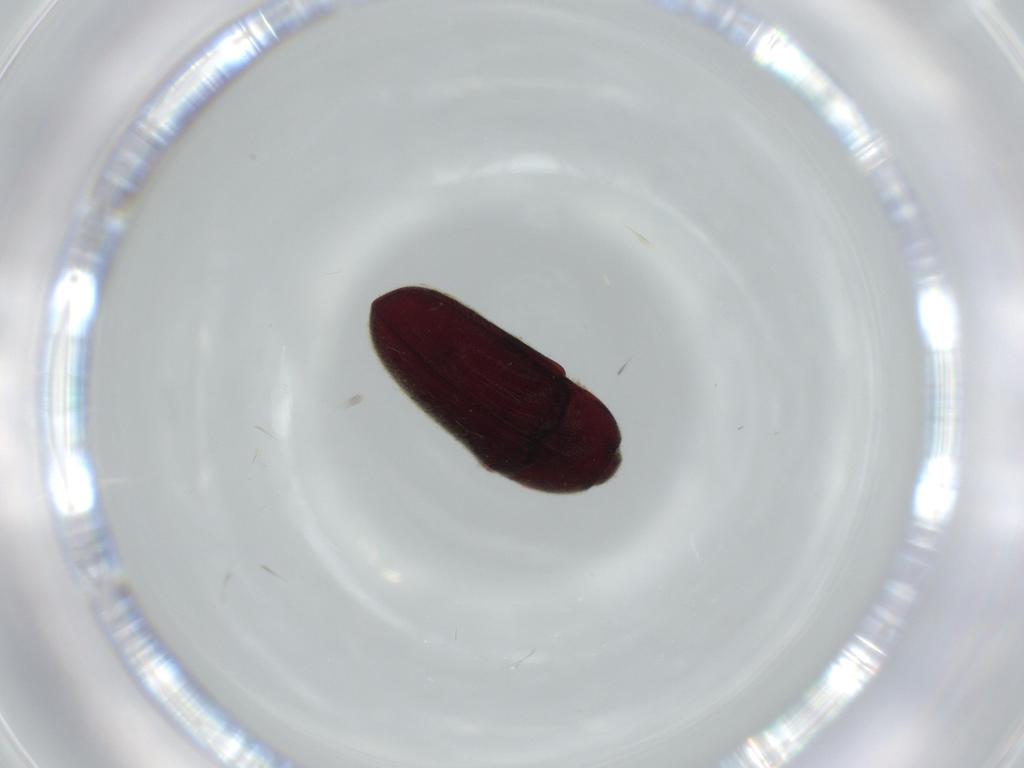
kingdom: Animalia
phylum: Arthropoda
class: Insecta
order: Coleoptera
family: Throscidae
